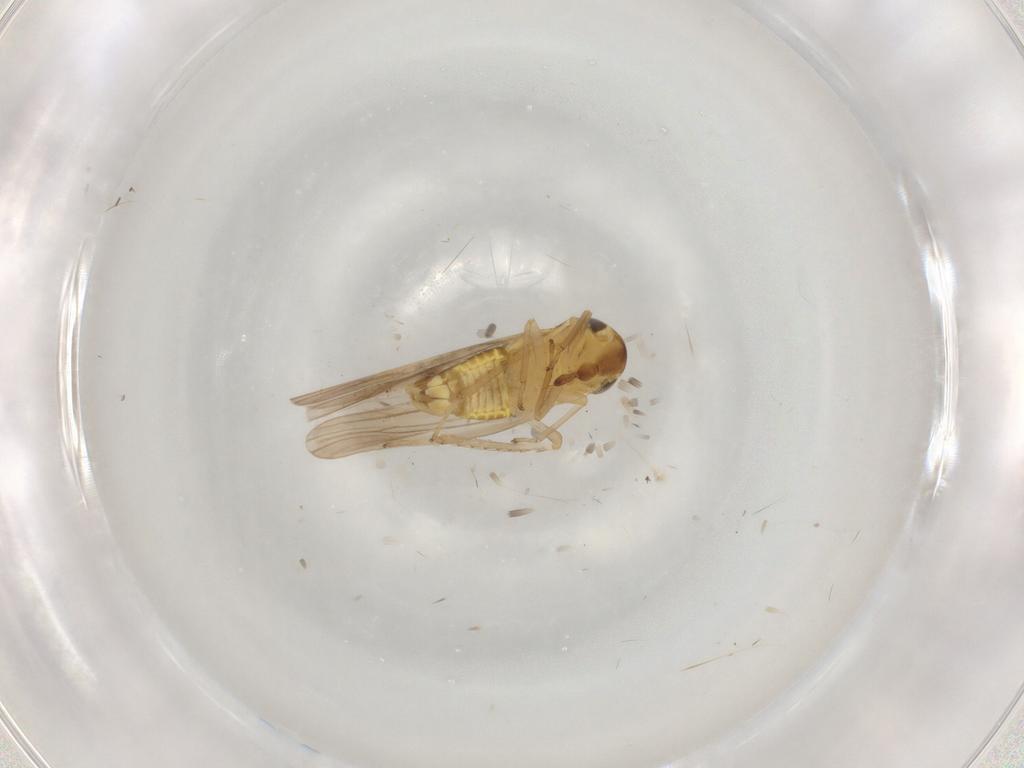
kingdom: Animalia
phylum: Arthropoda
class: Insecta
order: Hemiptera
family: Cicadellidae
